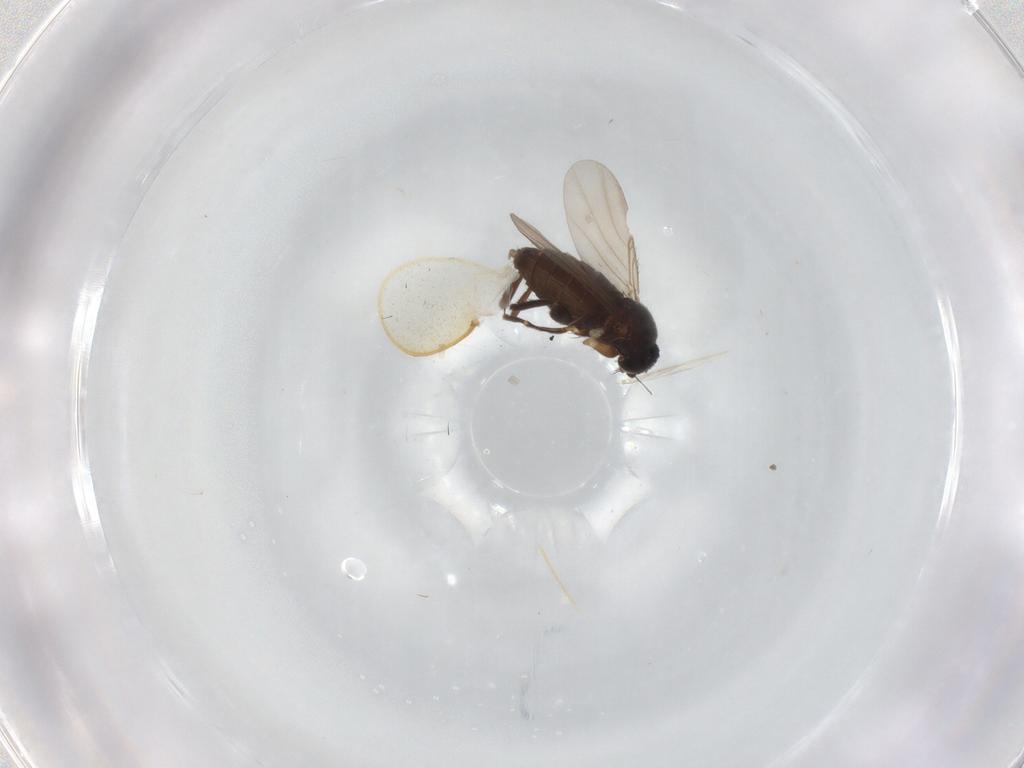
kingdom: Animalia
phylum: Arthropoda
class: Insecta
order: Diptera
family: Phoridae
